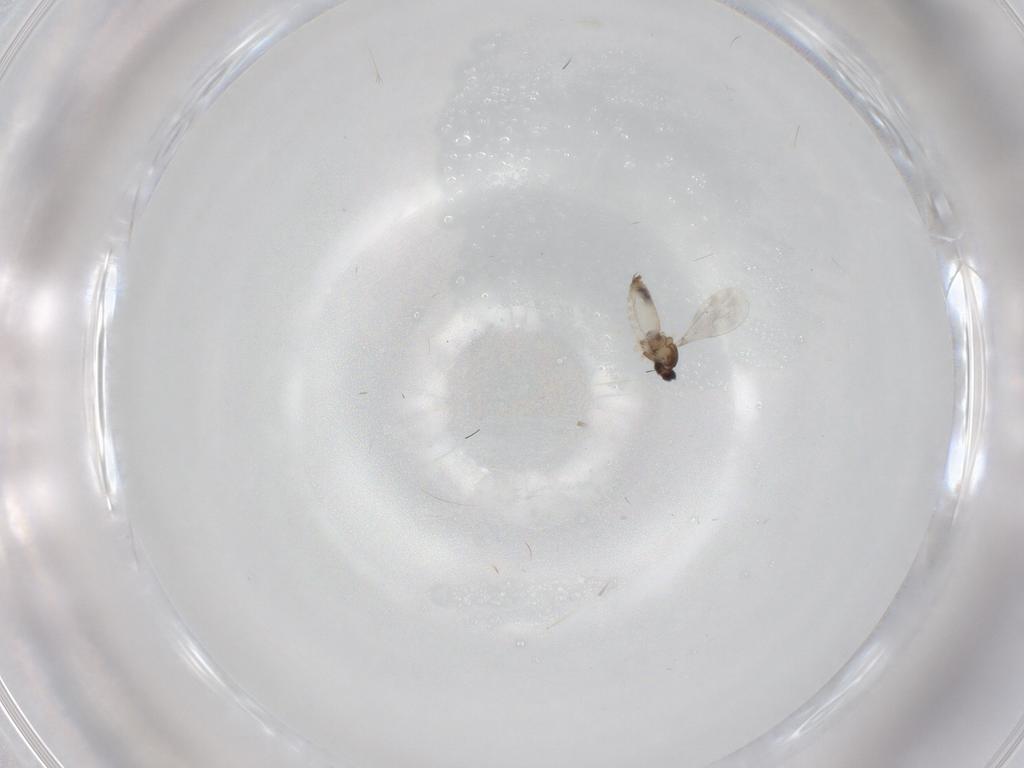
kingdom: Animalia
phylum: Arthropoda
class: Insecta
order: Diptera
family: Cecidomyiidae
